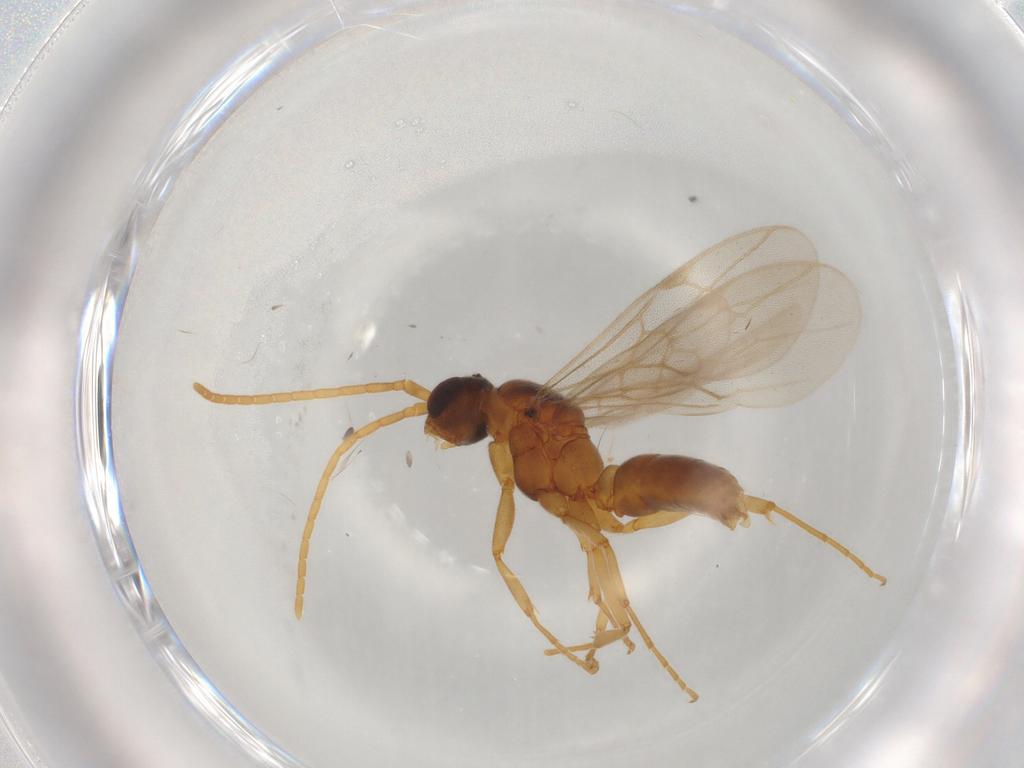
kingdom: Animalia
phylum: Arthropoda
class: Insecta
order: Hymenoptera
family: Formicidae
